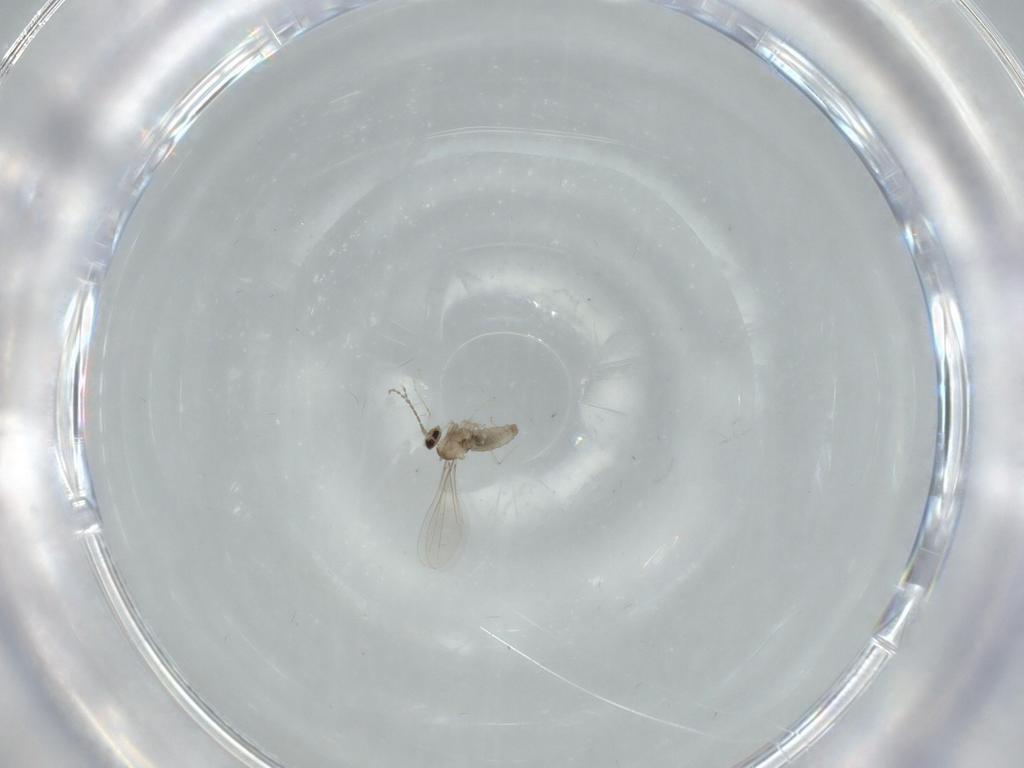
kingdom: Animalia
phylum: Arthropoda
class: Insecta
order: Diptera
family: Cecidomyiidae
